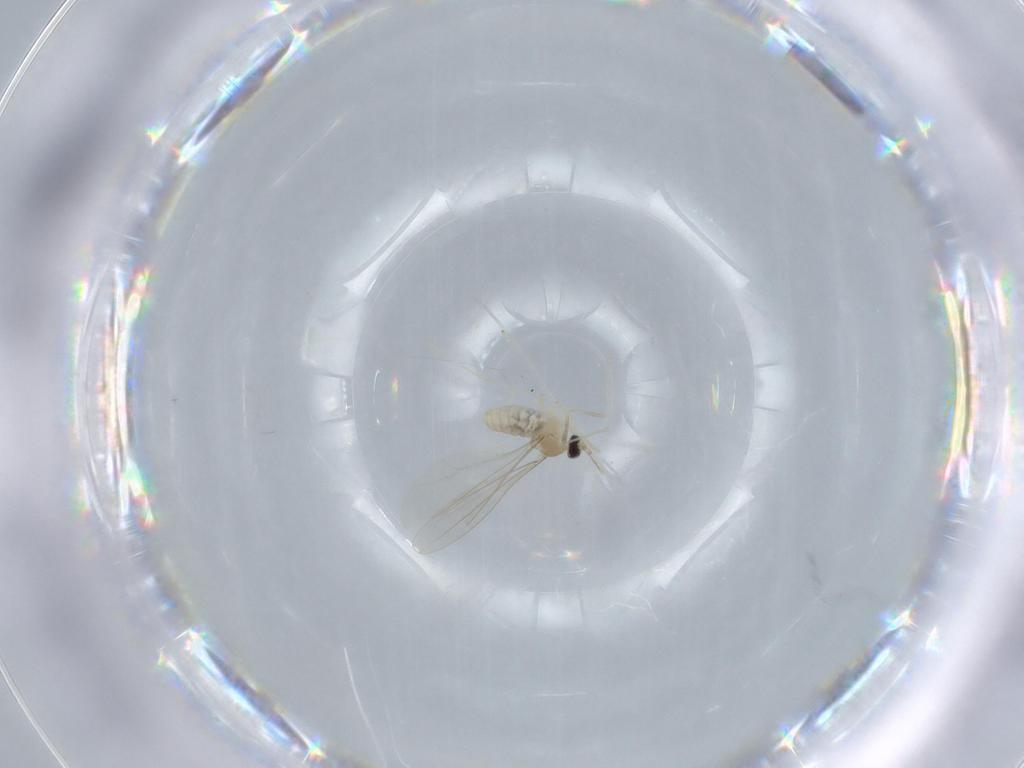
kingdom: Animalia
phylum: Arthropoda
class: Insecta
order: Diptera
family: Cecidomyiidae
